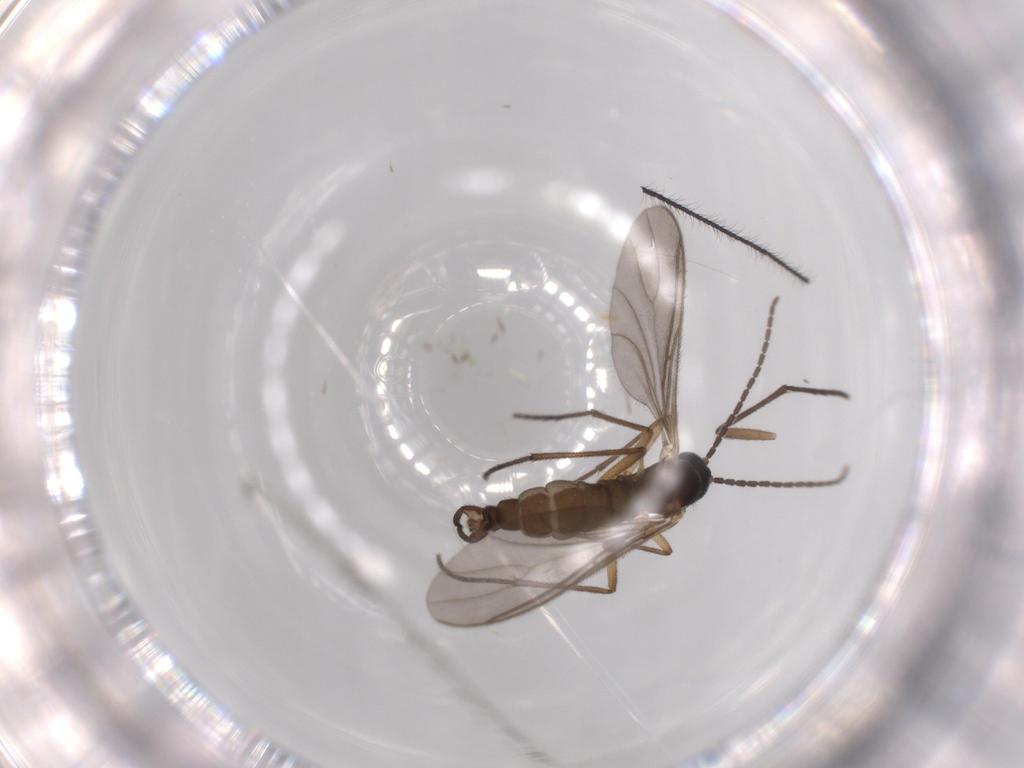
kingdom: Animalia
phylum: Arthropoda
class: Insecta
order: Diptera
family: Sciaridae
